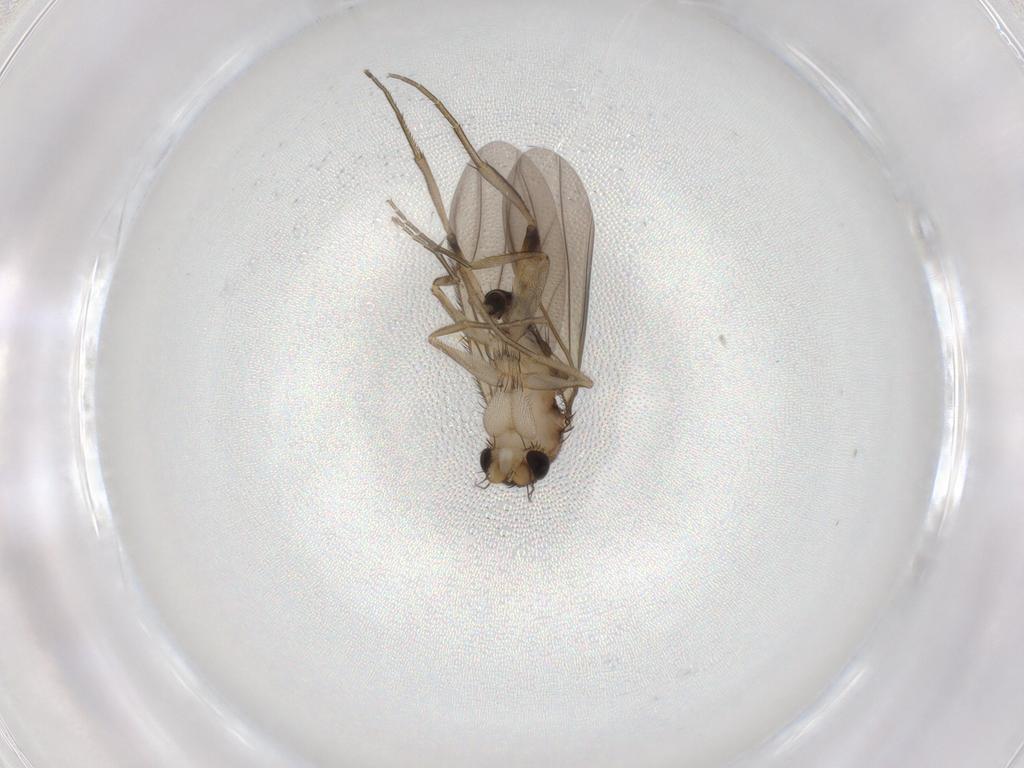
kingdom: Animalia
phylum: Arthropoda
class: Insecta
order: Diptera
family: Phoridae
